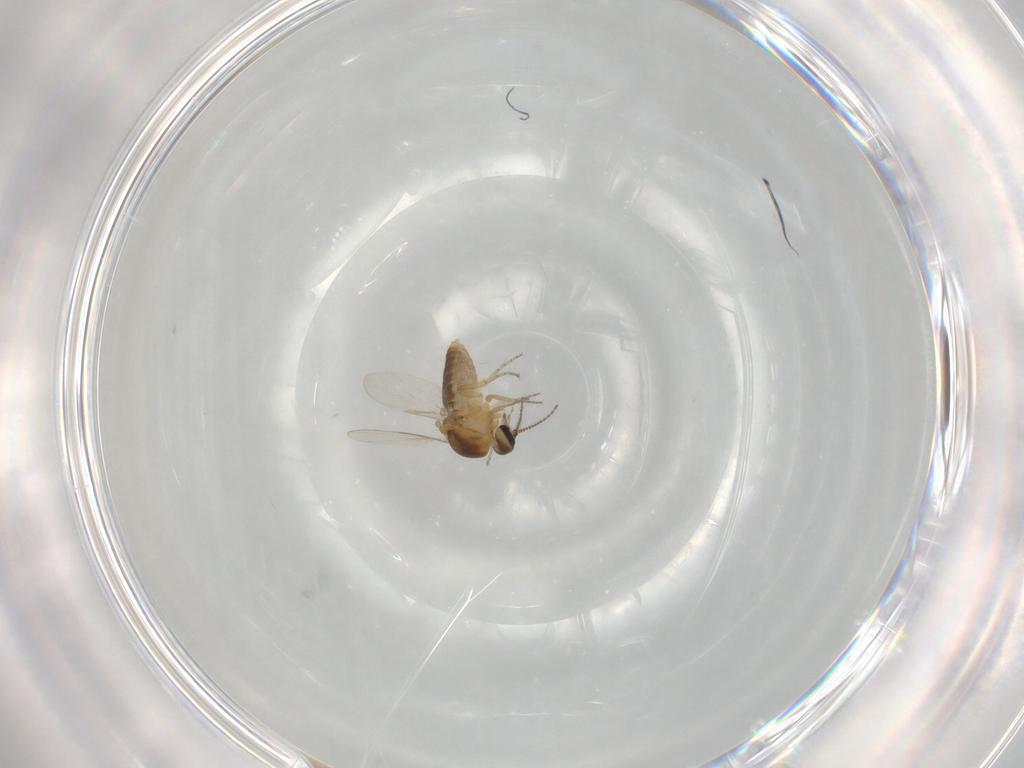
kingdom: Animalia
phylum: Arthropoda
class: Insecta
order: Diptera
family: Ceratopogonidae
